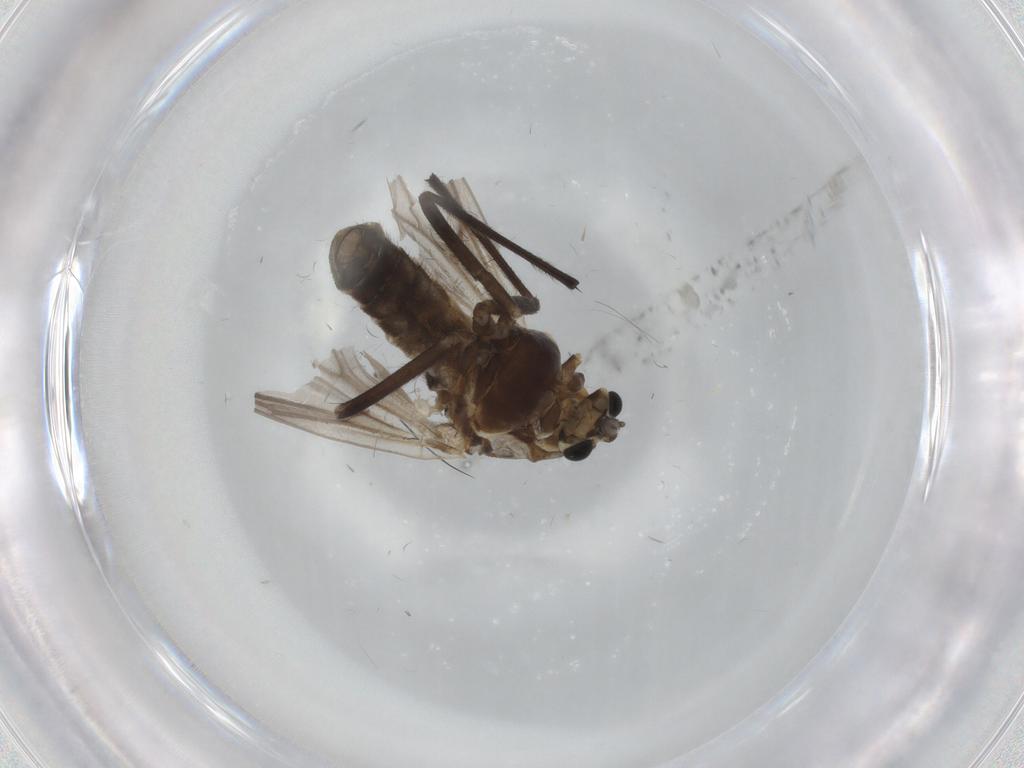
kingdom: Animalia
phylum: Arthropoda
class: Insecta
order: Diptera
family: Chironomidae
